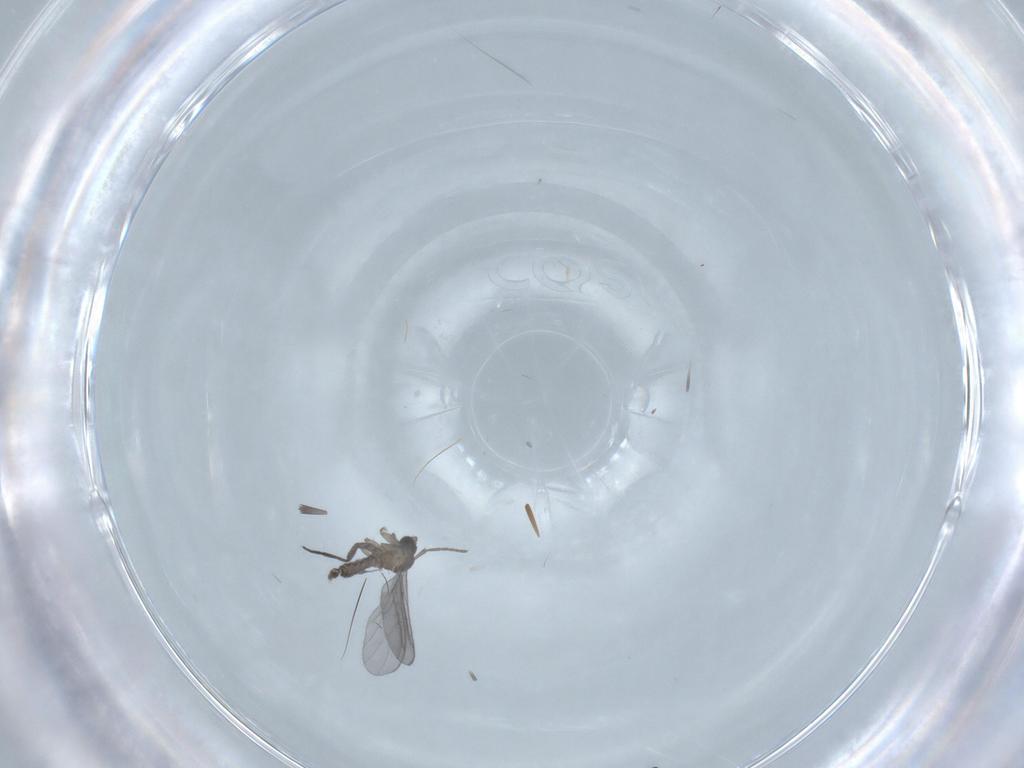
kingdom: Animalia
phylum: Arthropoda
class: Insecta
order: Diptera
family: Sciaridae
